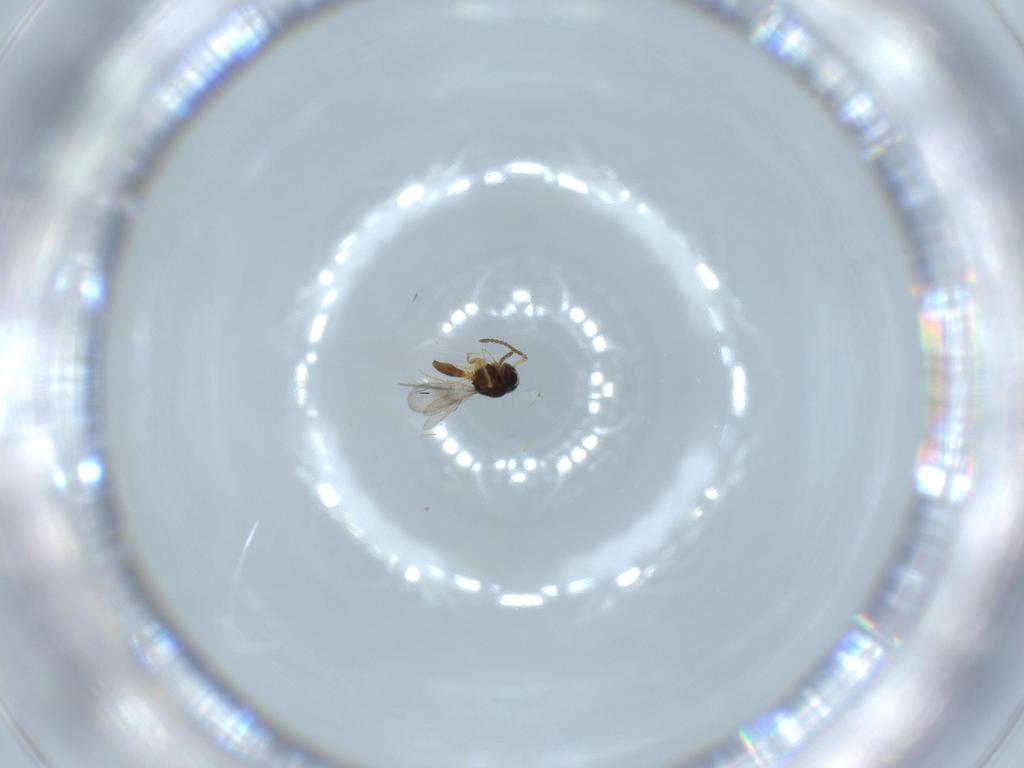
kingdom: Animalia
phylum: Arthropoda
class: Insecta
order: Hymenoptera
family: Scelionidae
